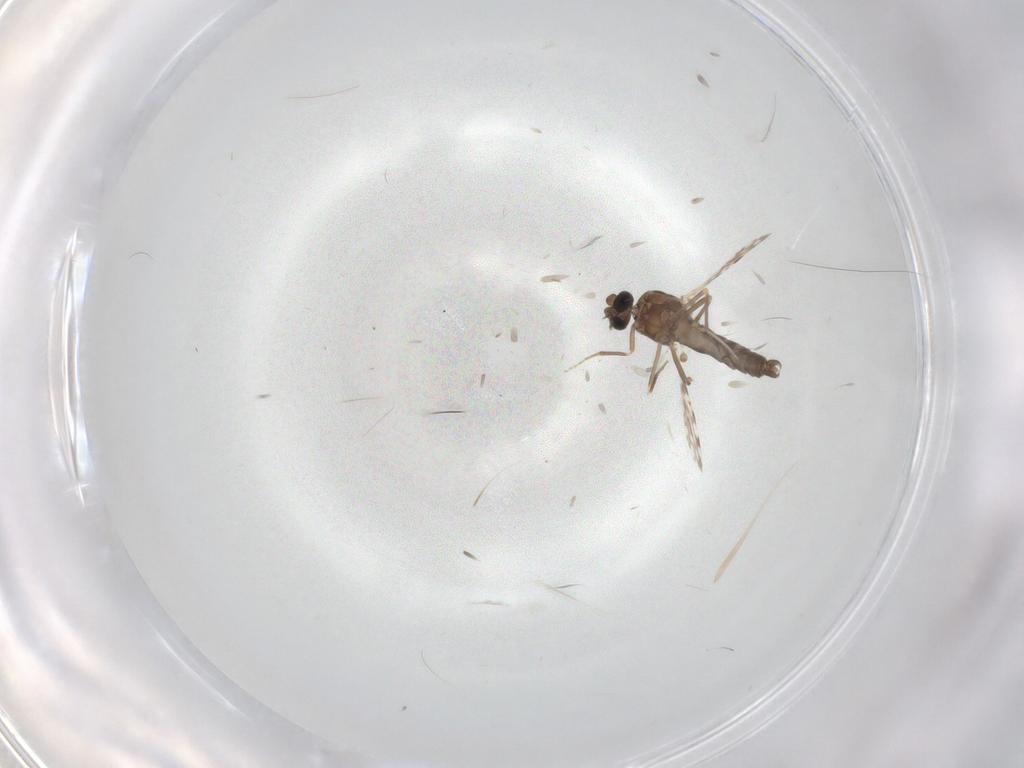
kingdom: Animalia
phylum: Arthropoda
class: Insecta
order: Diptera
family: Ceratopogonidae
